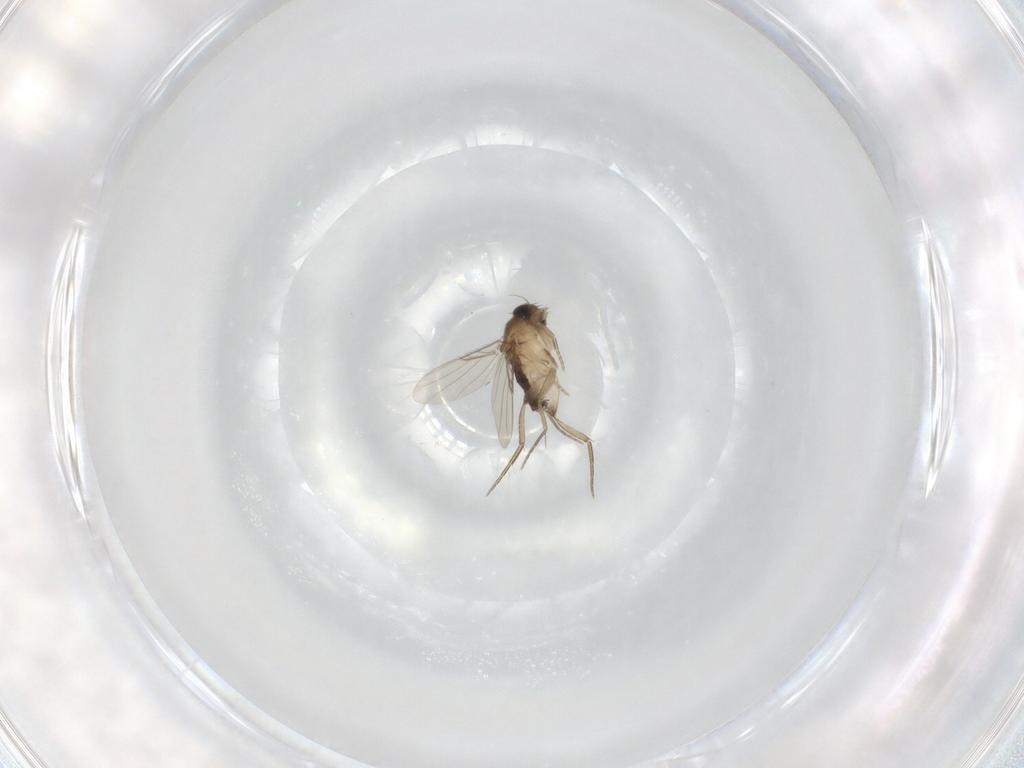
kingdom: Animalia
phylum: Arthropoda
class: Insecta
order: Diptera
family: Phoridae
